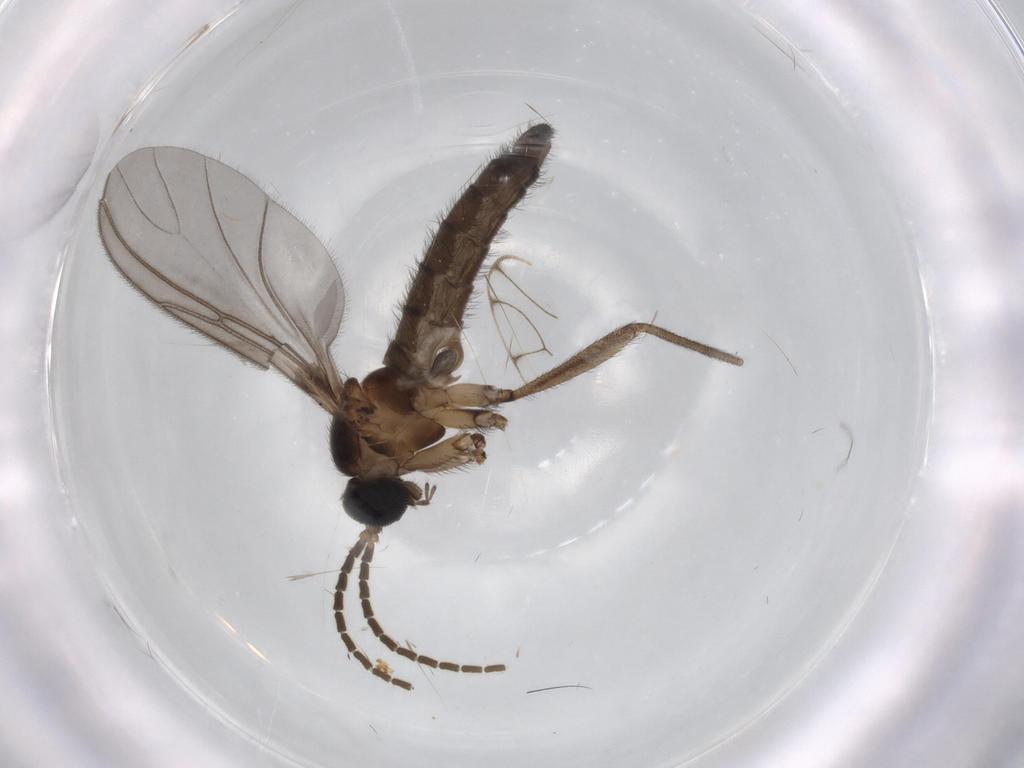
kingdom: Animalia
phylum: Arthropoda
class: Insecta
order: Diptera
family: Chironomidae
